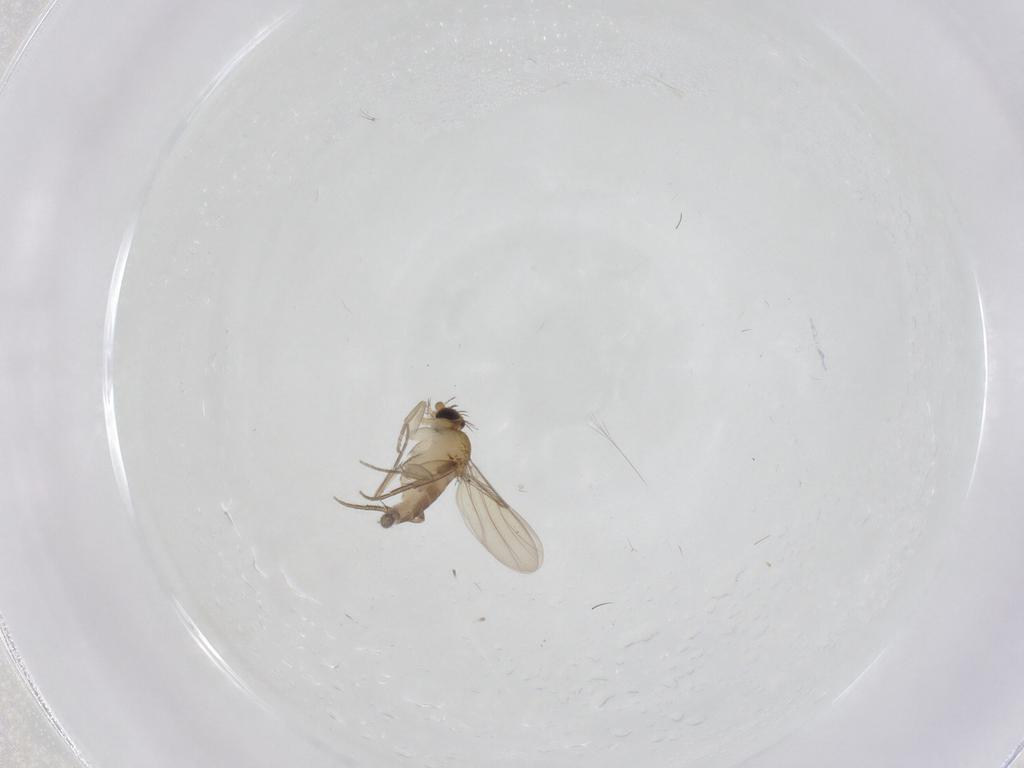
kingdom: Animalia
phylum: Arthropoda
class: Insecta
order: Diptera
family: Phoridae
